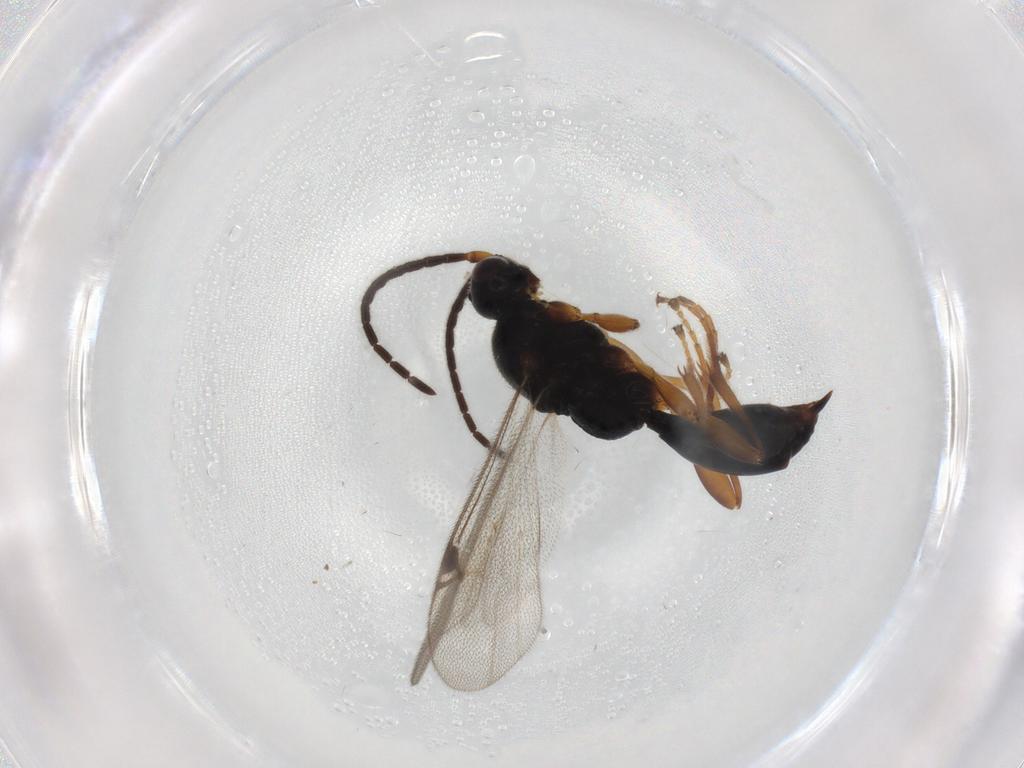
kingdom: Animalia
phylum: Arthropoda
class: Insecta
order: Hymenoptera
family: Proctotrupidae
